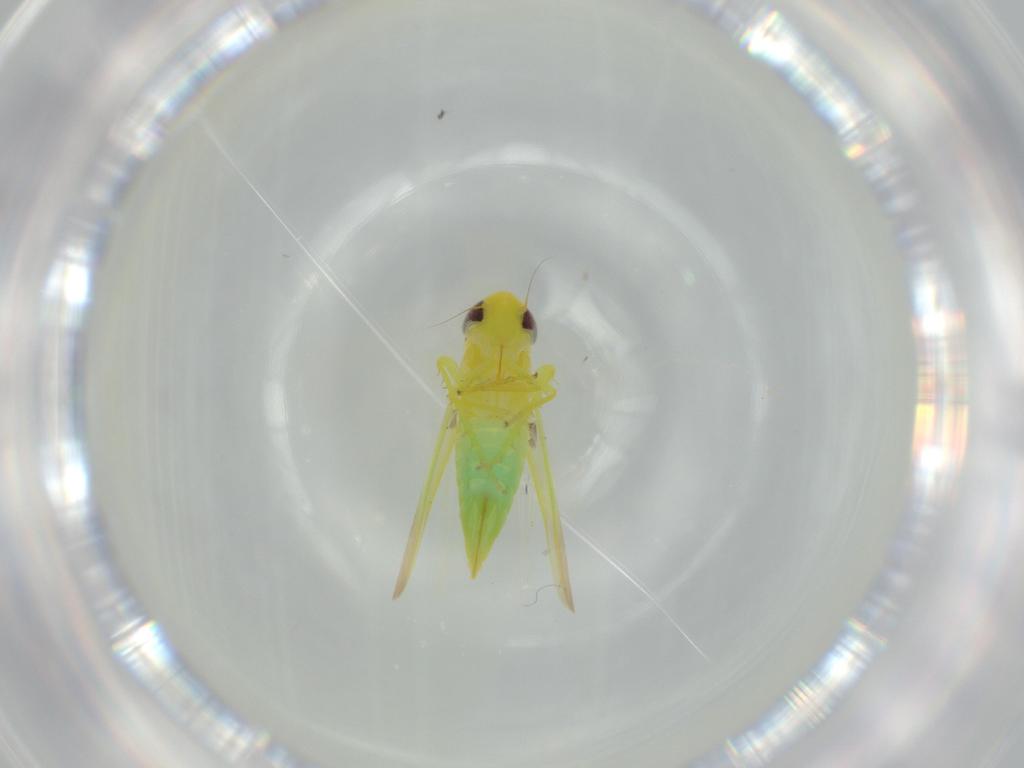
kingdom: Animalia
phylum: Arthropoda
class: Insecta
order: Hemiptera
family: Cicadellidae
